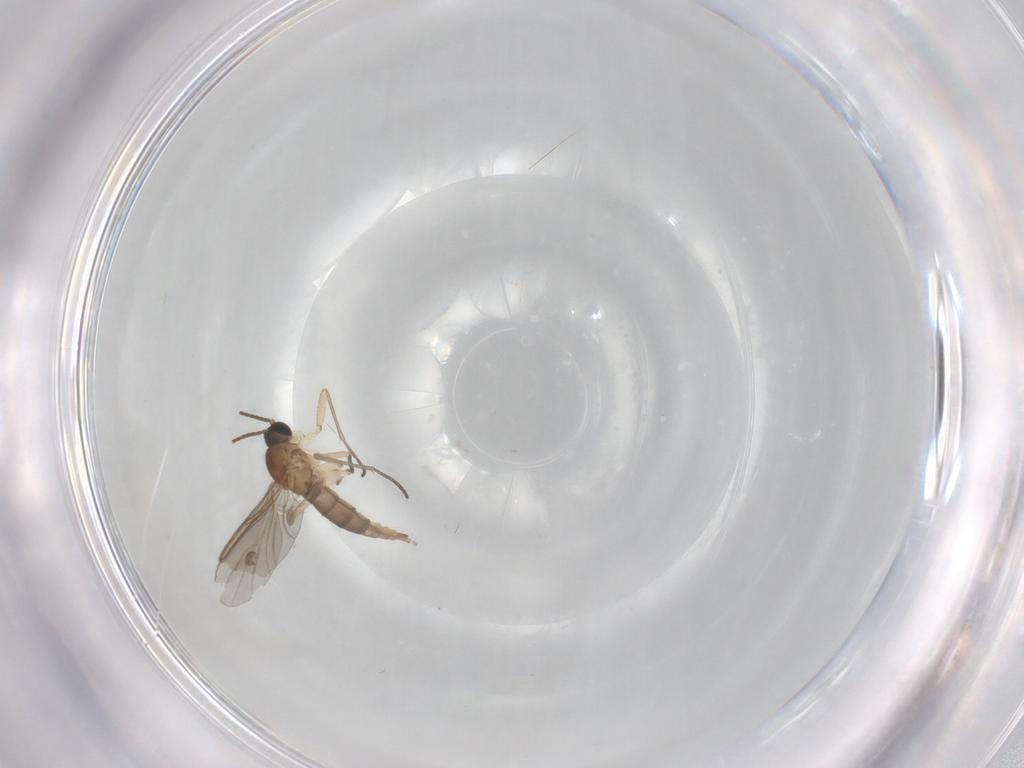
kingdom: Animalia
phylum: Arthropoda
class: Insecta
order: Diptera
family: Sciaridae
